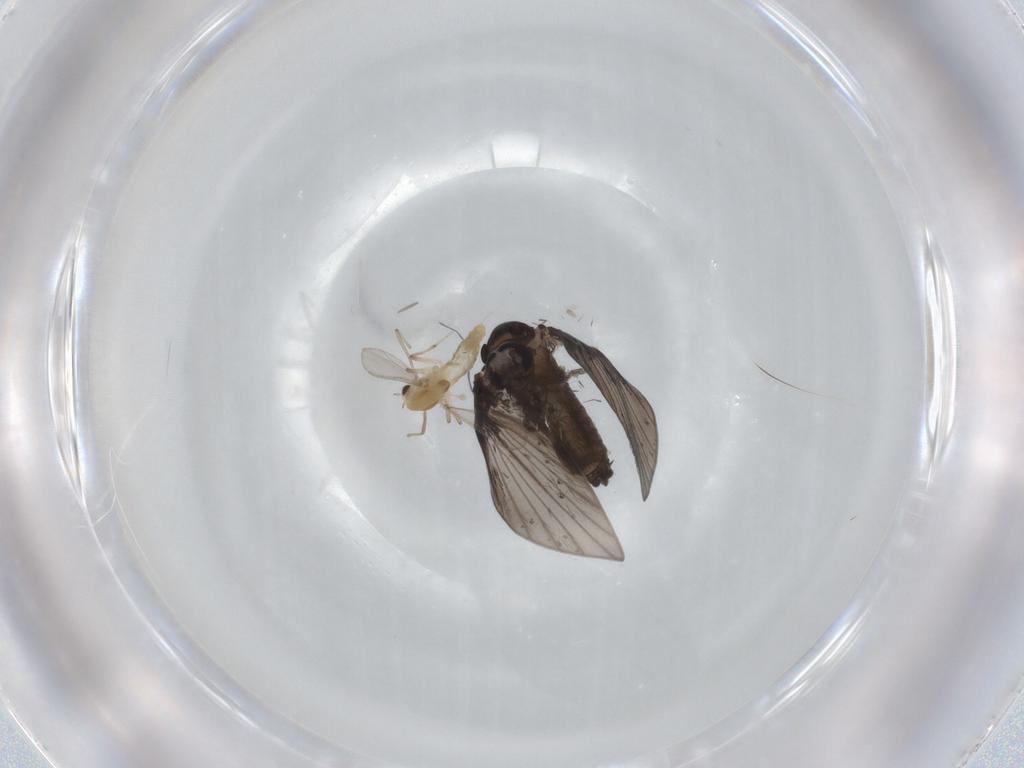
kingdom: Animalia
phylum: Arthropoda
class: Insecta
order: Diptera
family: Chironomidae
